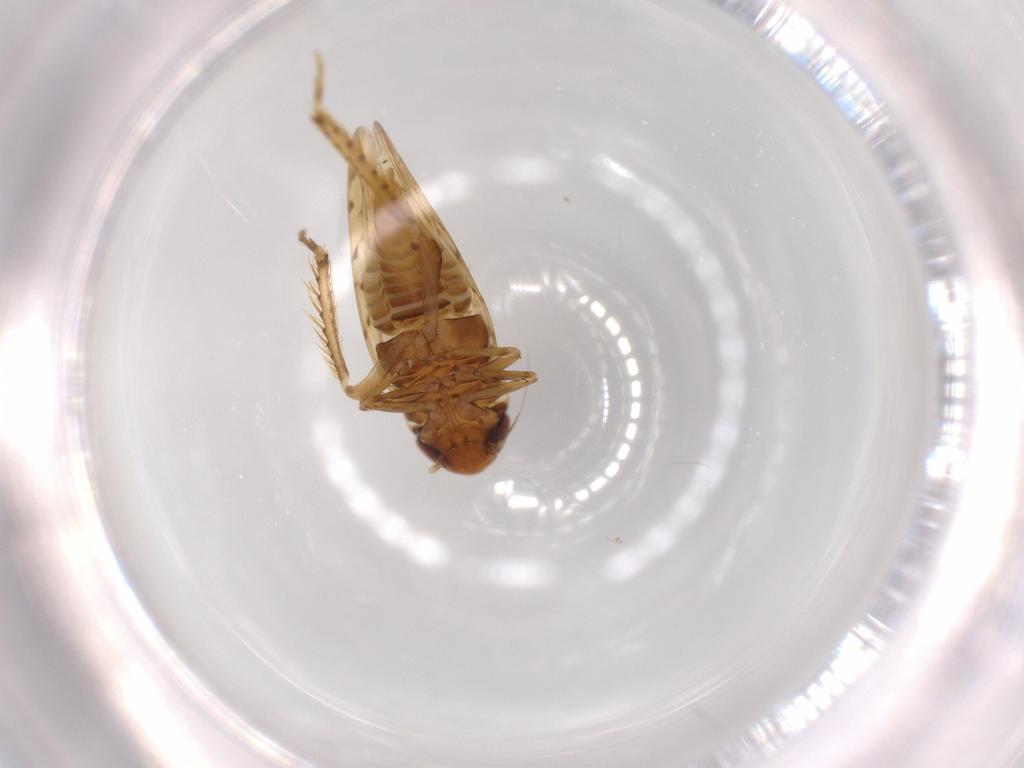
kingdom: Animalia
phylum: Arthropoda
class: Insecta
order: Hemiptera
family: Cicadellidae
